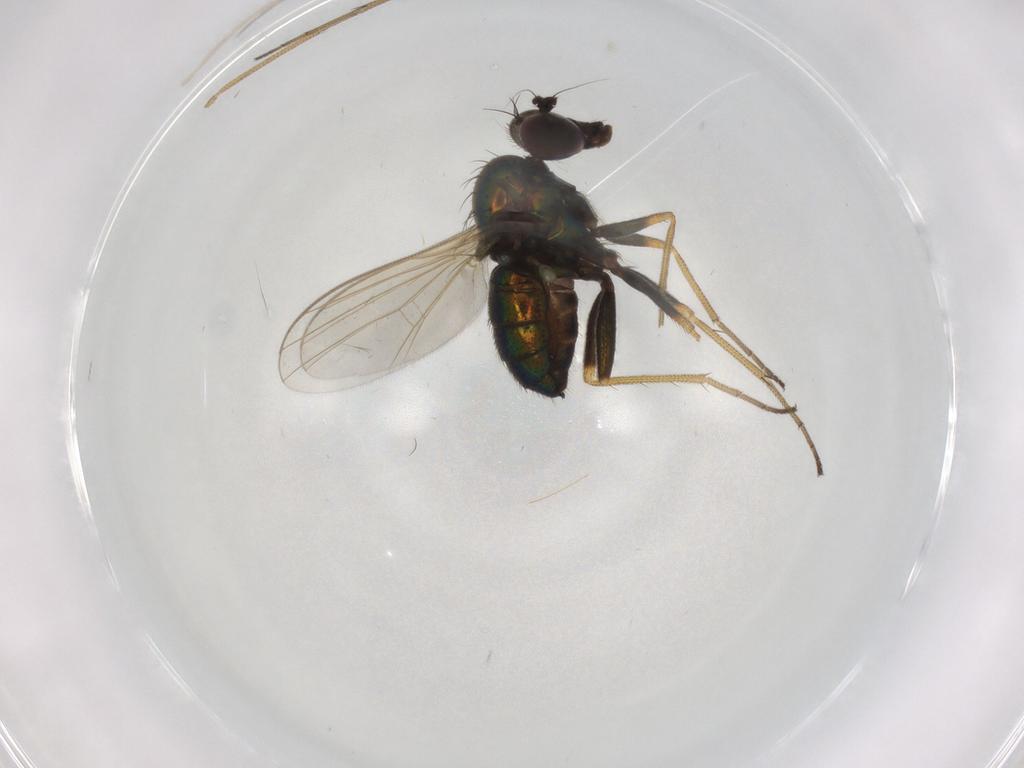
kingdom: Animalia
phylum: Arthropoda
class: Insecta
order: Diptera
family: Dolichopodidae
